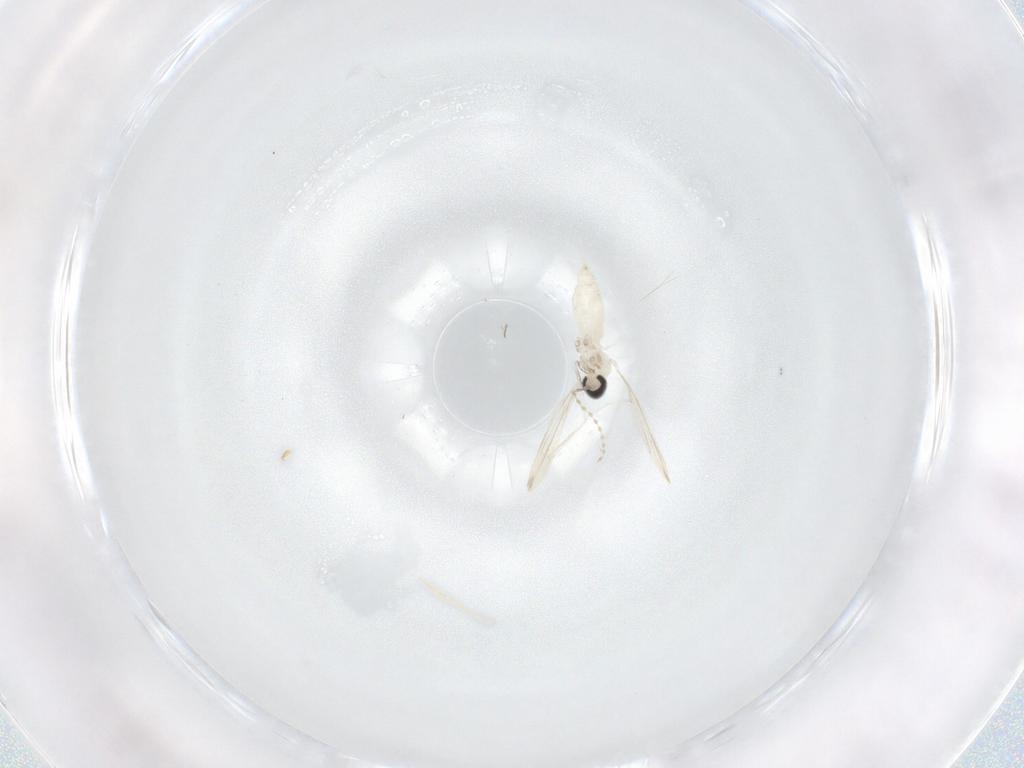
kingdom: Animalia
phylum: Arthropoda
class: Insecta
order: Diptera
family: Cecidomyiidae
